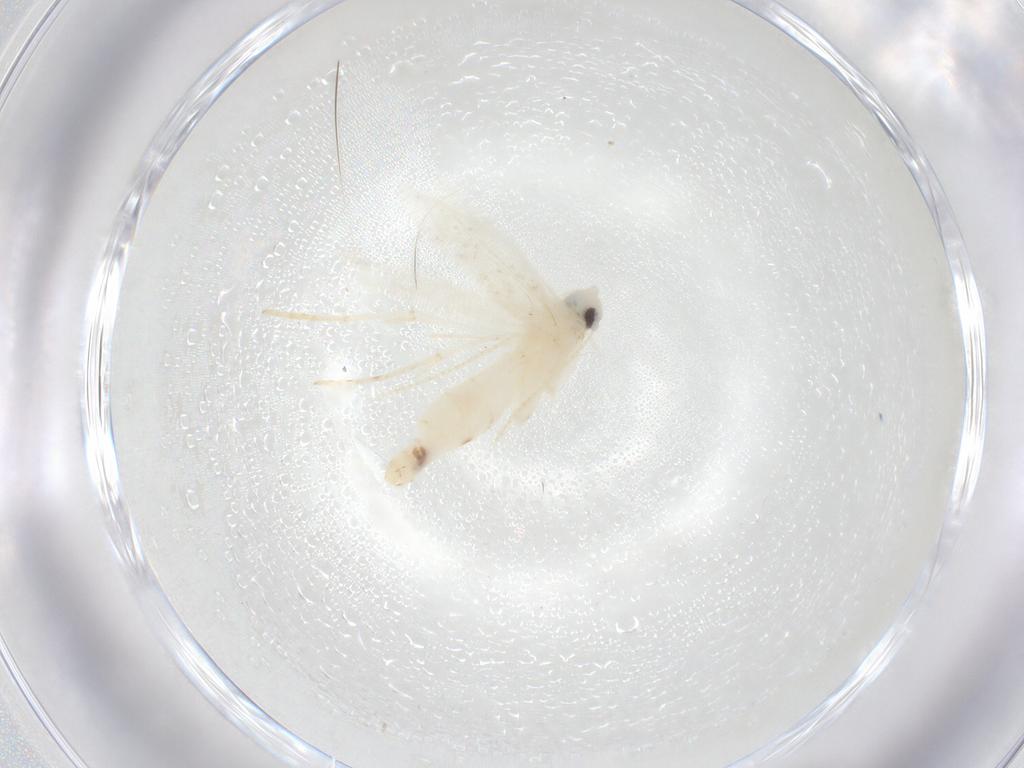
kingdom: Animalia
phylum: Arthropoda
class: Insecta
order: Lepidoptera
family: Nepticulidae
